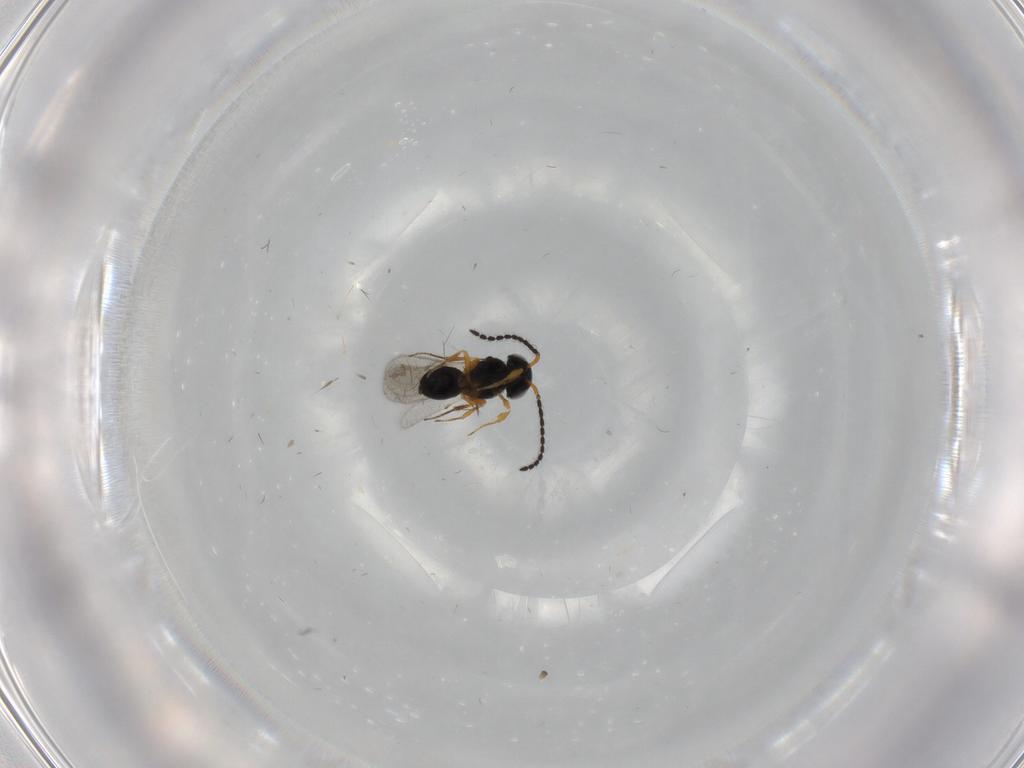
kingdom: Animalia
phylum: Arthropoda
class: Insecta
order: Hymenoptera
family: Scelionidae
